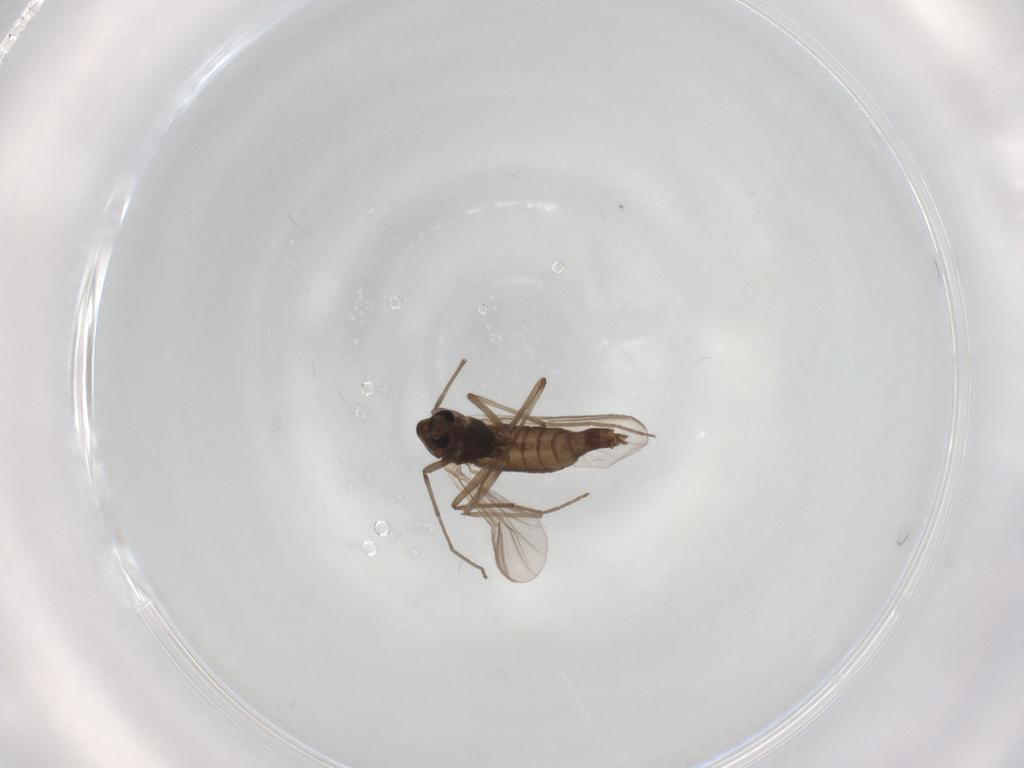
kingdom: Animalia
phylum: Arthropoda
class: Insecta
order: Diptera
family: Chironomidae
